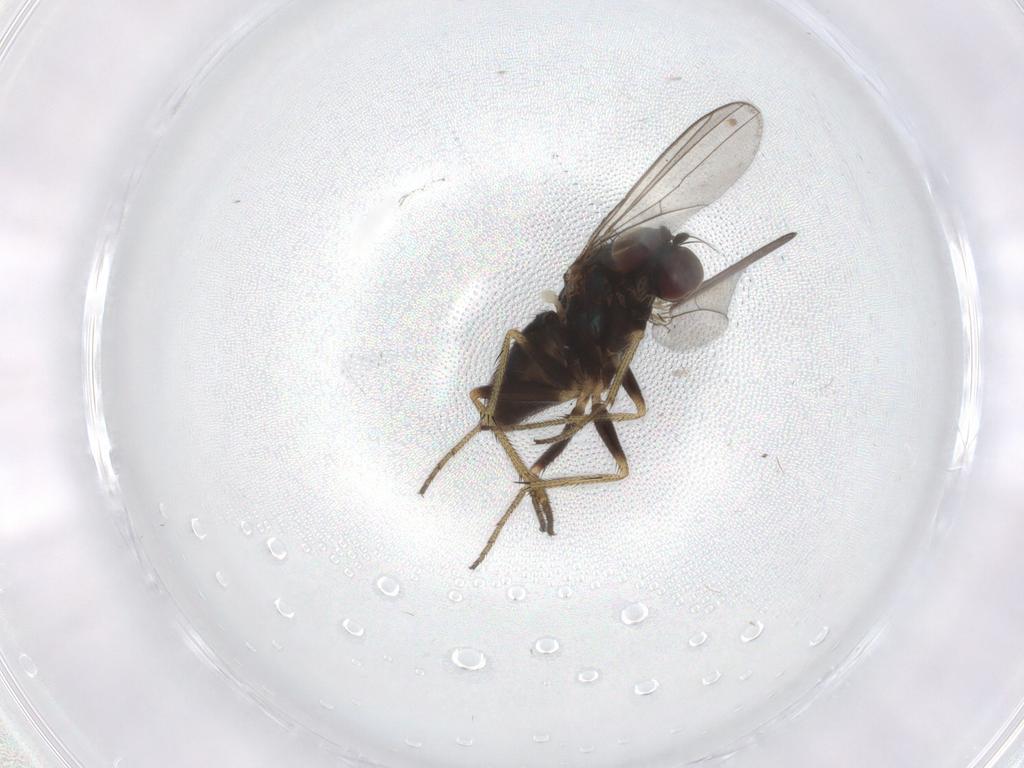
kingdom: Animalia
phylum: Arthropoda
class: Insecta
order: Diptera
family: Dolichopodidae
